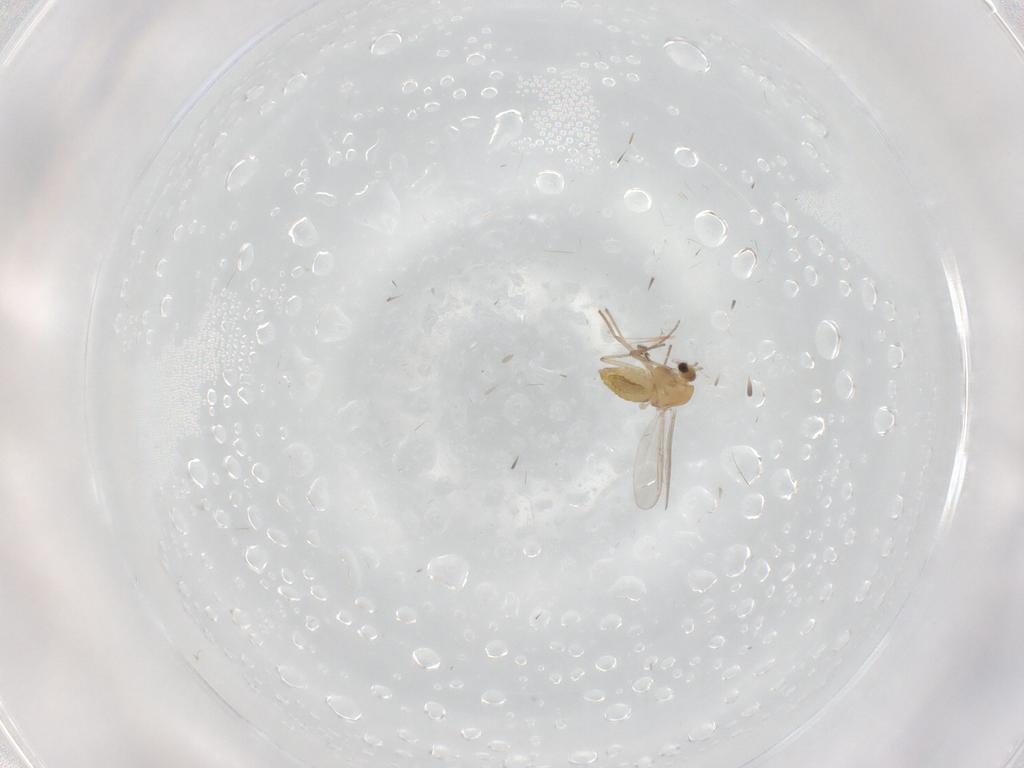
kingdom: Animalia
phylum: Arthropoda
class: Insecta
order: Diptera
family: Chironomidae
